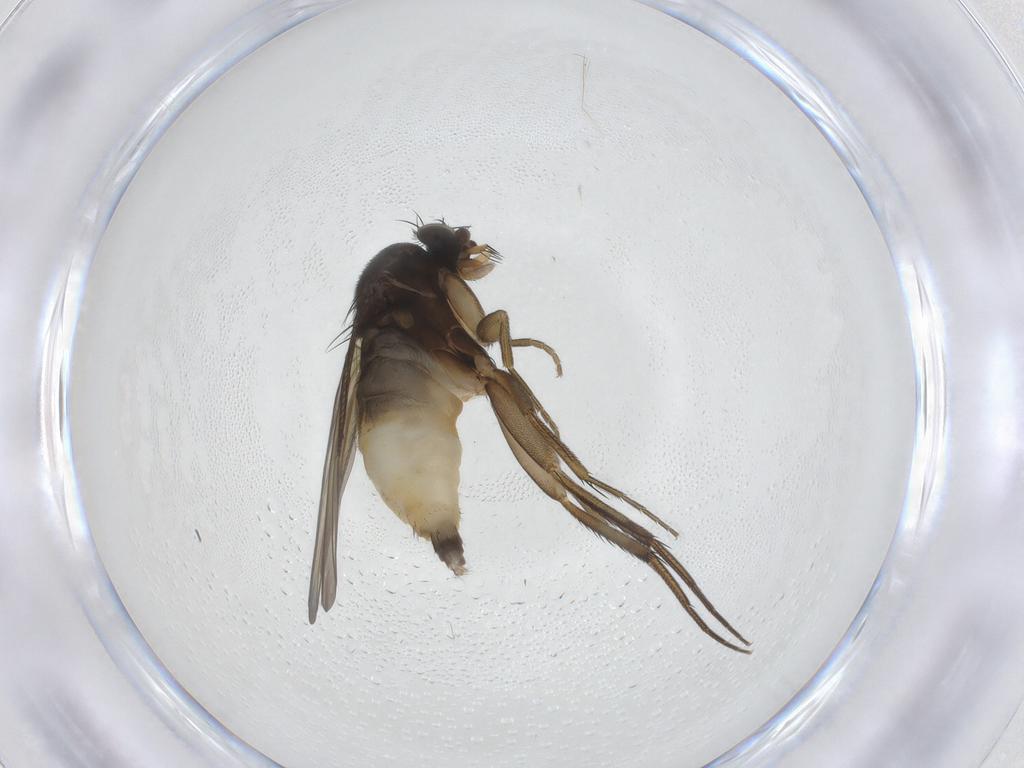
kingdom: Animalia
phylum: Arthropoda
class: Insecta
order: Diptera
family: Phoridae
